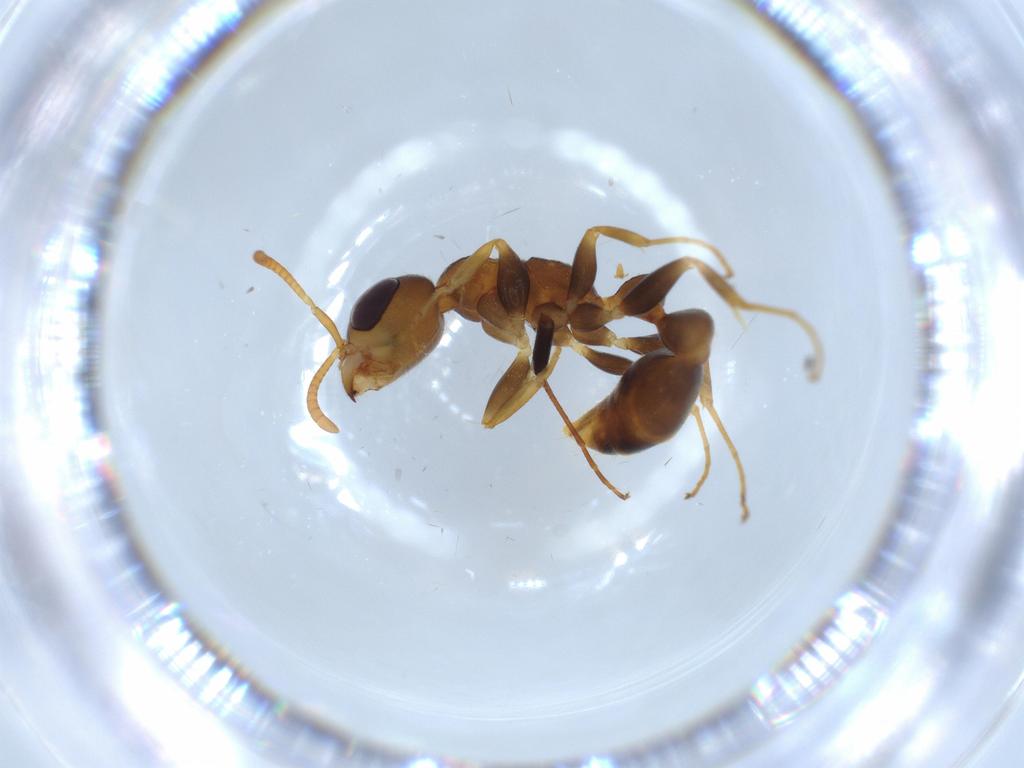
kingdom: Animalia
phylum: Arthropoda
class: Insecta
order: Hymenoptera
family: Formicidae
